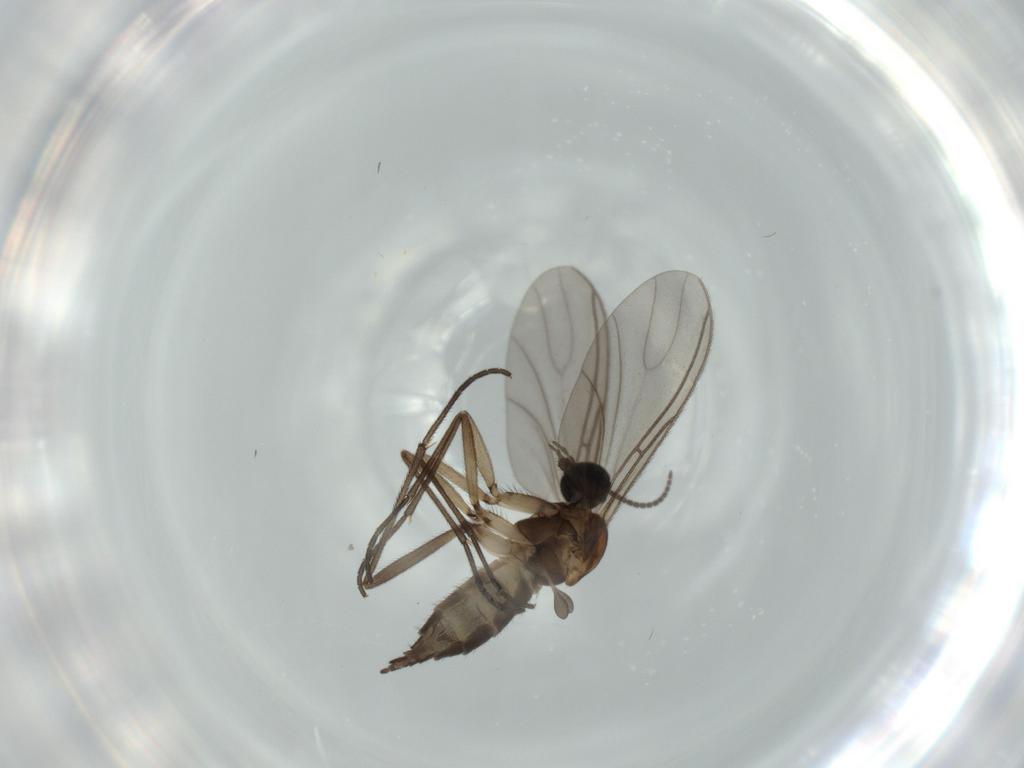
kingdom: Animalia
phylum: Arthropoda
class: Insecta
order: Diptera
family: Sciaridae
